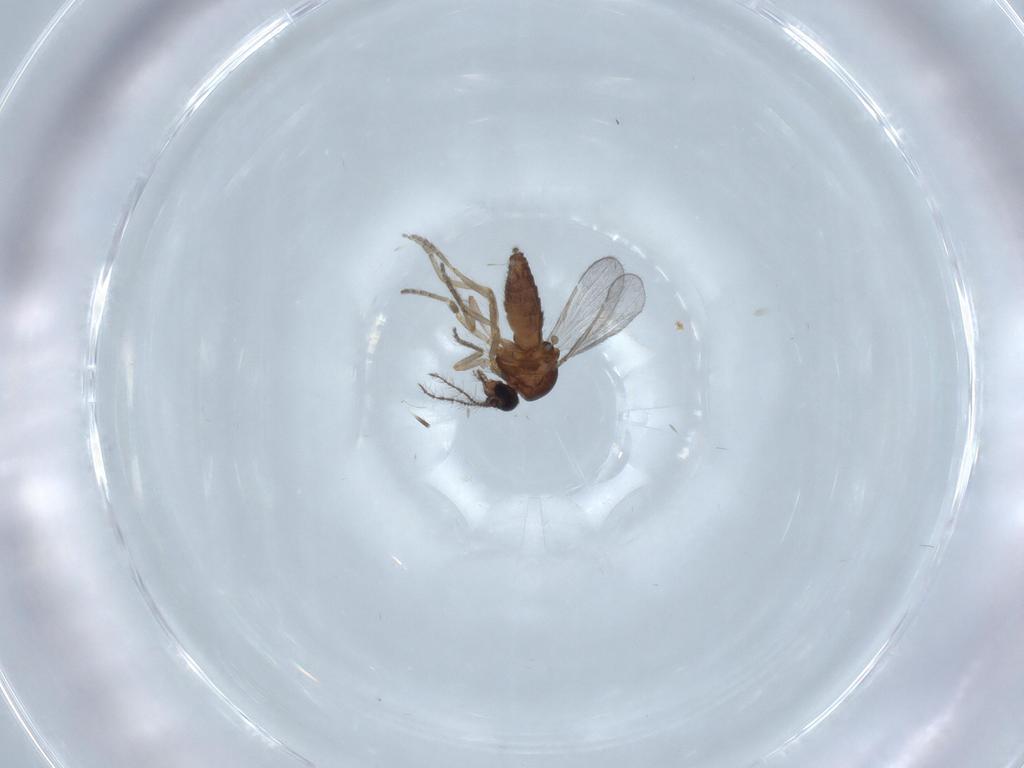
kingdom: Animalia
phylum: Arthropoda
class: Insecta
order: Diptera
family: Ceratopogonidae
